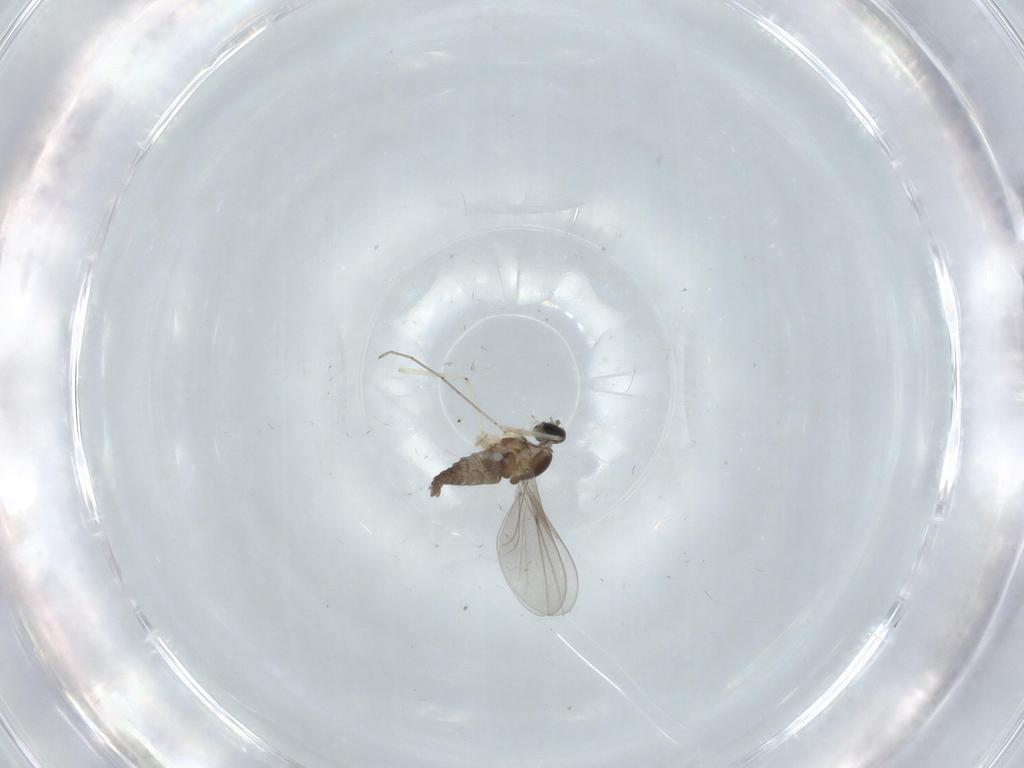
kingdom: Animalia
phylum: Arthropoda
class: Insecta
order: Diptera
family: Cecidomyiidae
